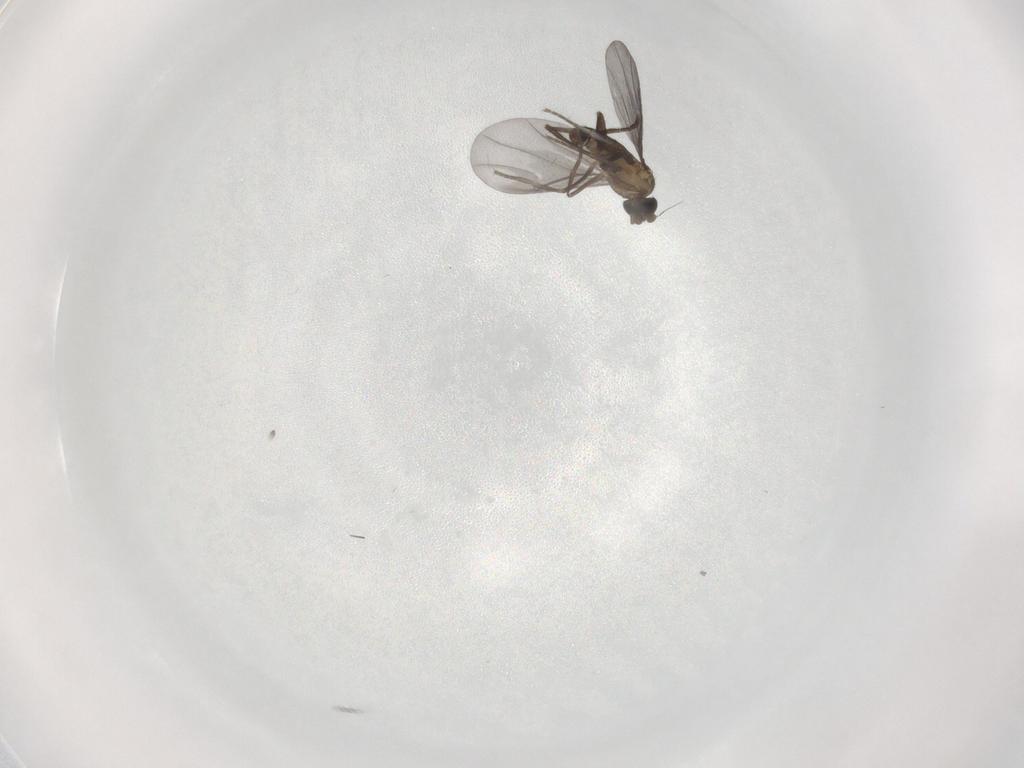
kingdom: Animalia
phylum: Arthropoda
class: Insecta
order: Diptera
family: Phoridae
